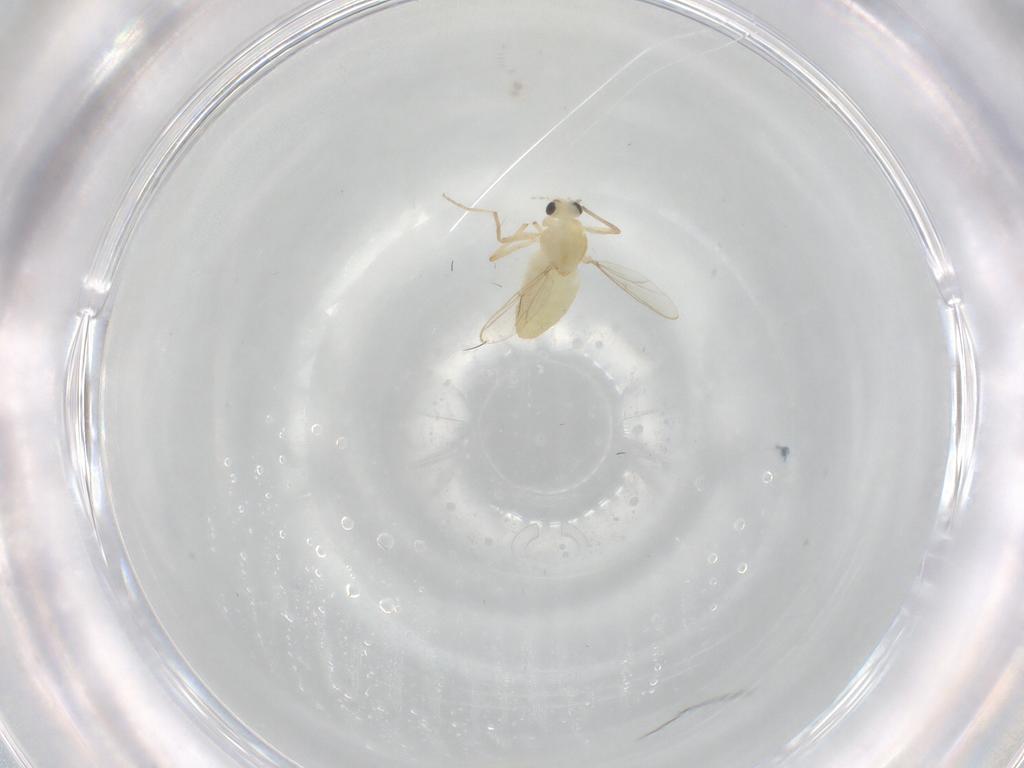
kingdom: Animalia
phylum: Arthropoda
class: Insecta
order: Diptera
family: Chironomidae
